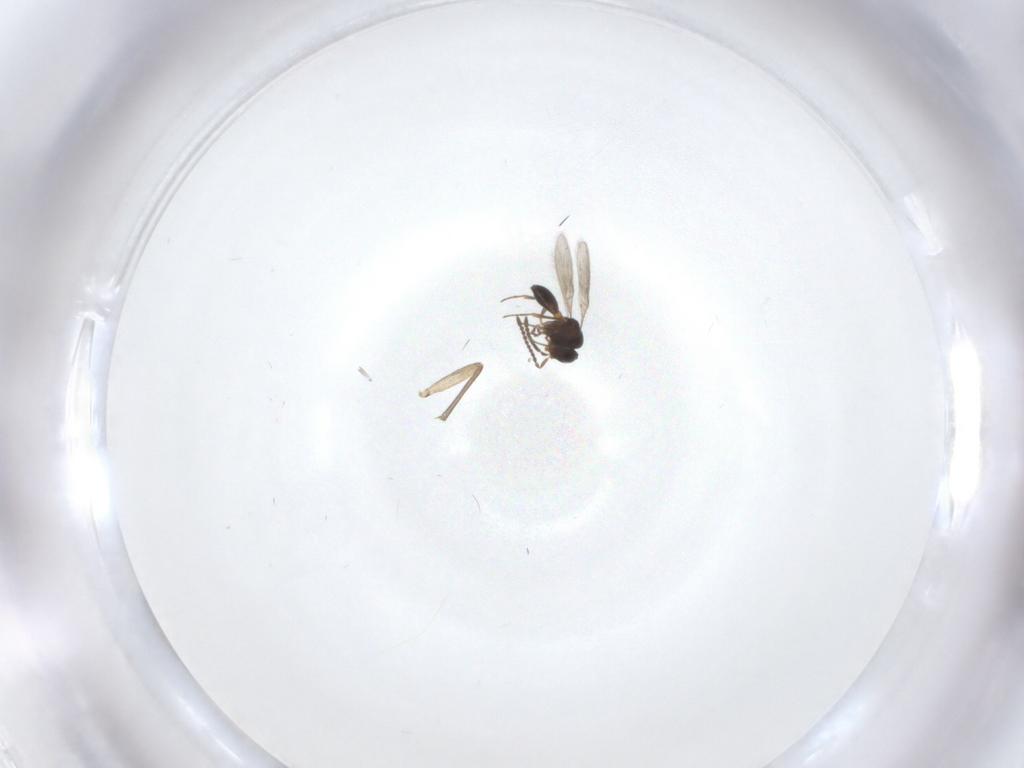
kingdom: Animalia
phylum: Arthropoda
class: Insecta
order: Hymenoptera
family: Scelionidae
